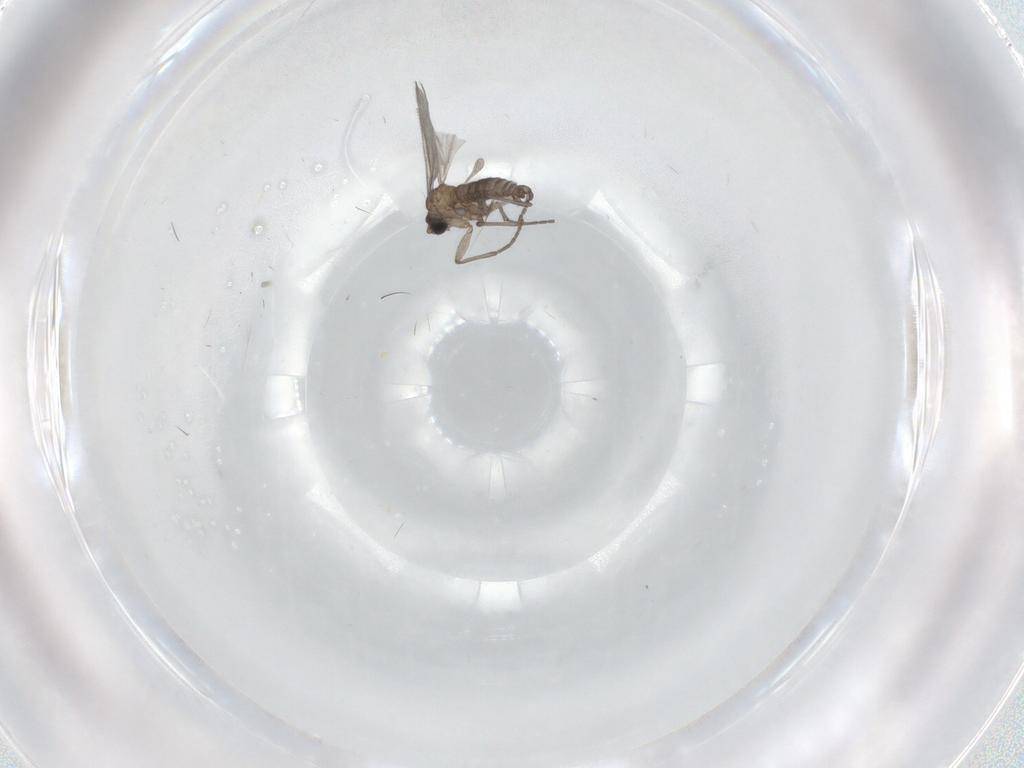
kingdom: Animalia
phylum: Arthropoda
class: Insecta
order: Diptera
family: Sciaridae
